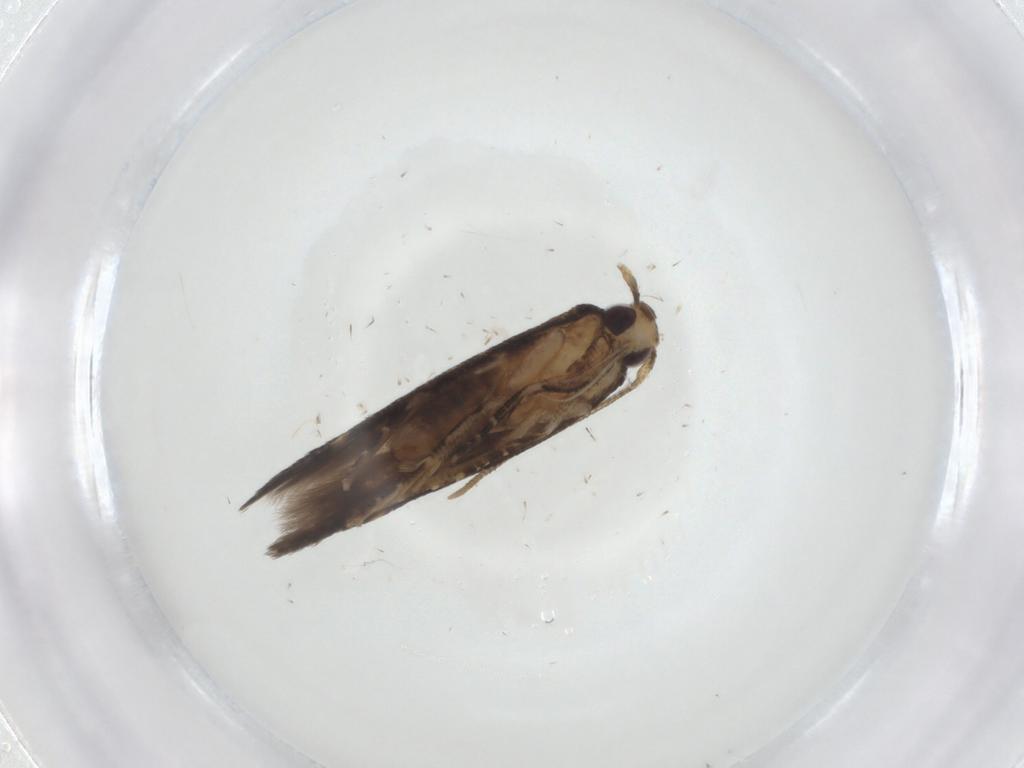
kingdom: Animalia
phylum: Arthropoda
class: Insecta
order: Lepidoptera
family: Cosmopterigidae
